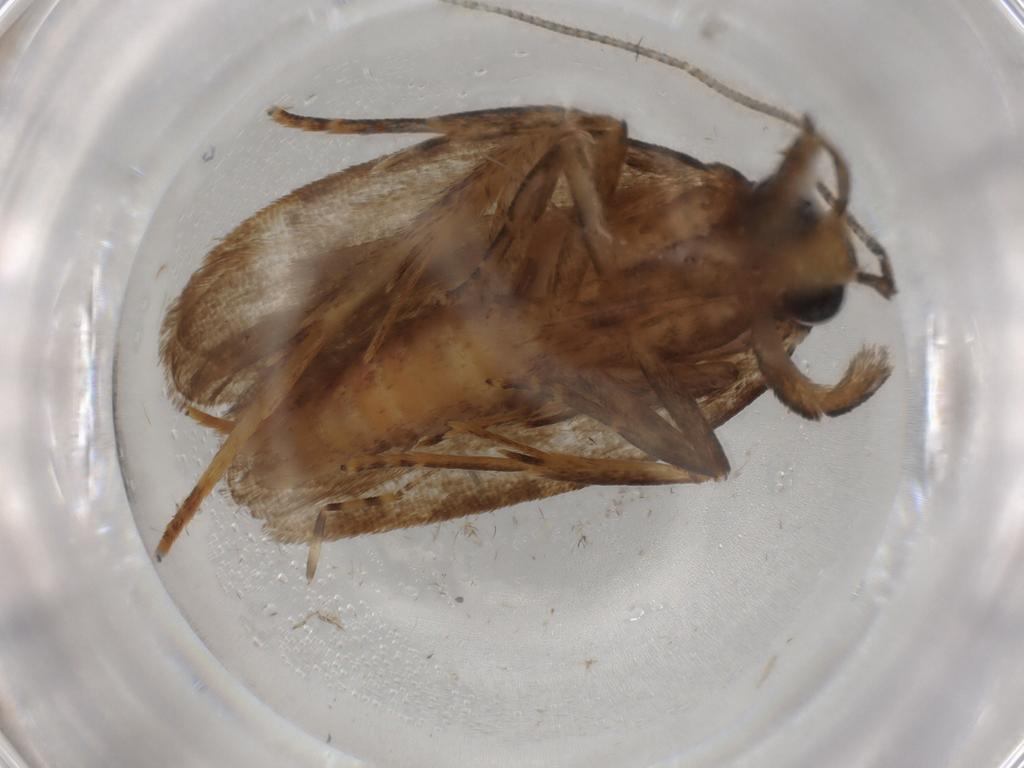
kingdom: Animalia
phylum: Arthropoda
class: Insecta
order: Lepidoptera
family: Autostichidae
